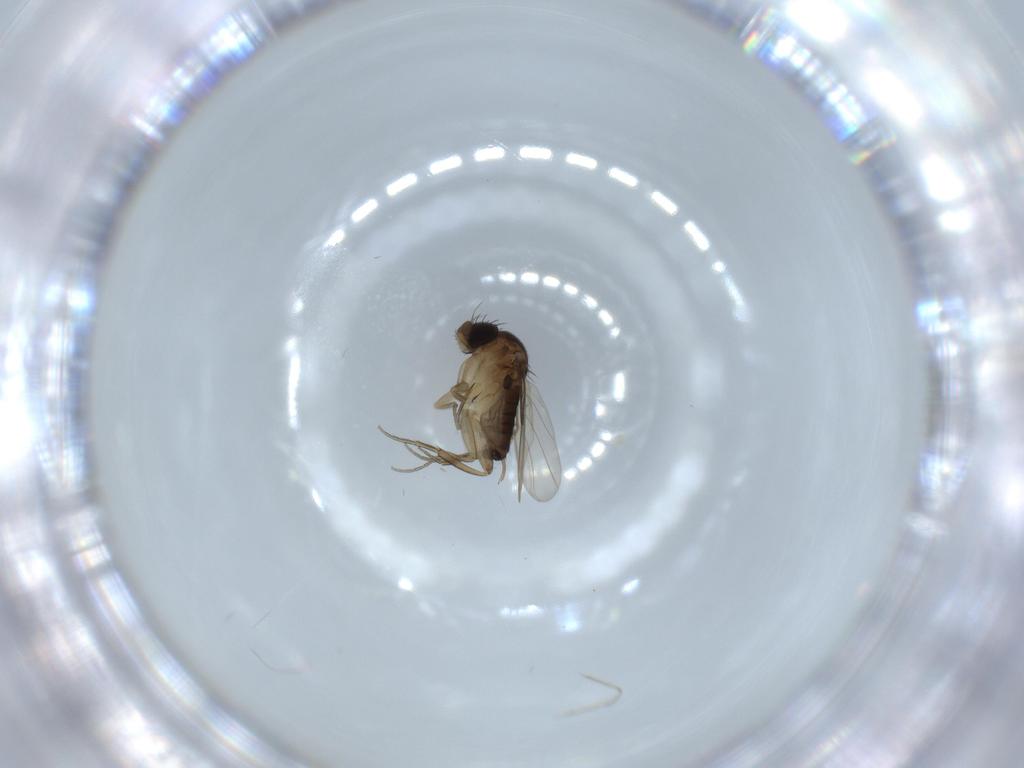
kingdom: Animalia
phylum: Arthropoda
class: Insecta
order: Diptera
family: Phoridae
